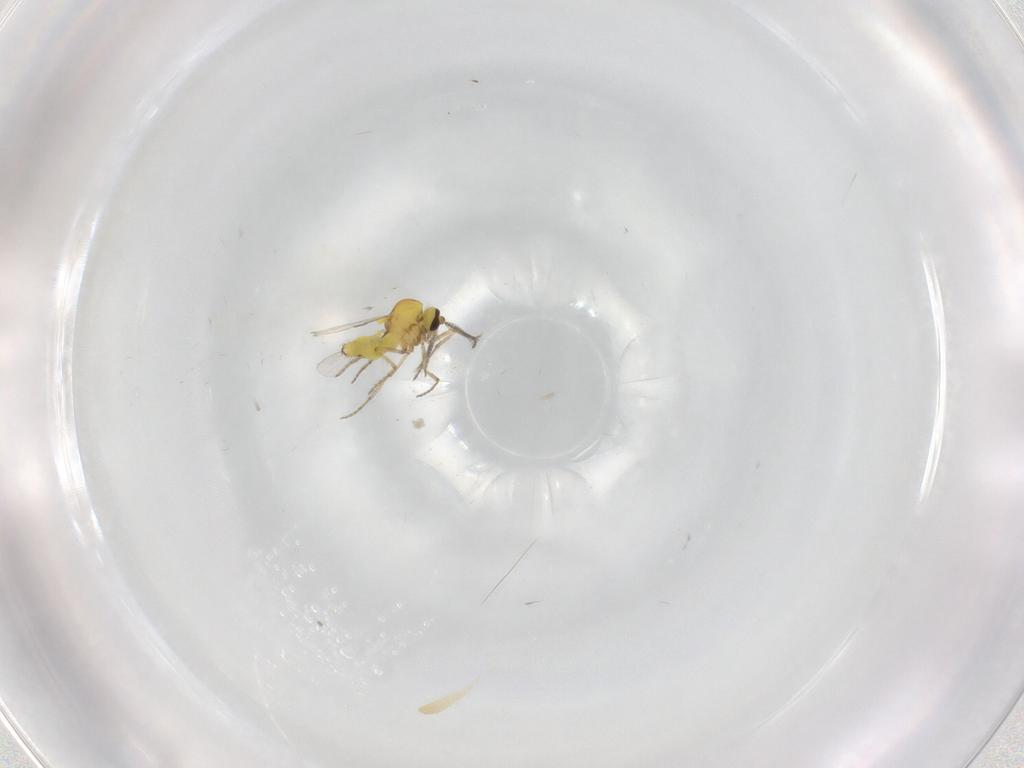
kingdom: Animalia
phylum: Arthropoda
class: Insecta
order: Diptera
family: Ceratopogonidae
